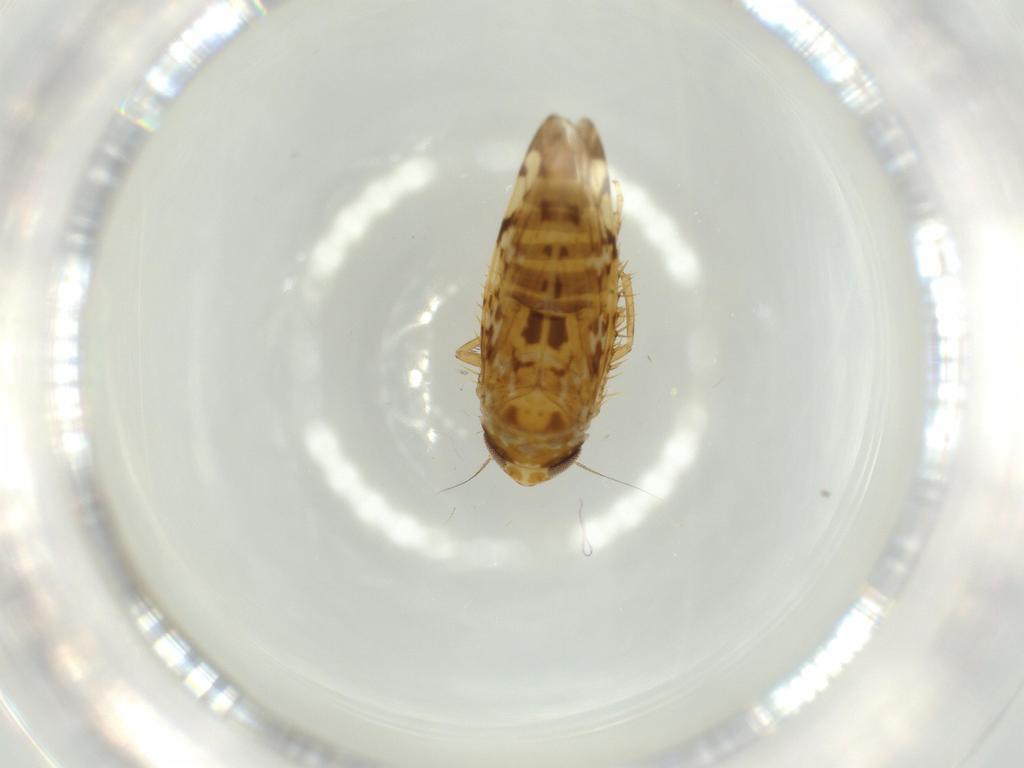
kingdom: Animalia
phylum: Arthropoda
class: Insecta
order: Hemiptera
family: Cicadellidae
